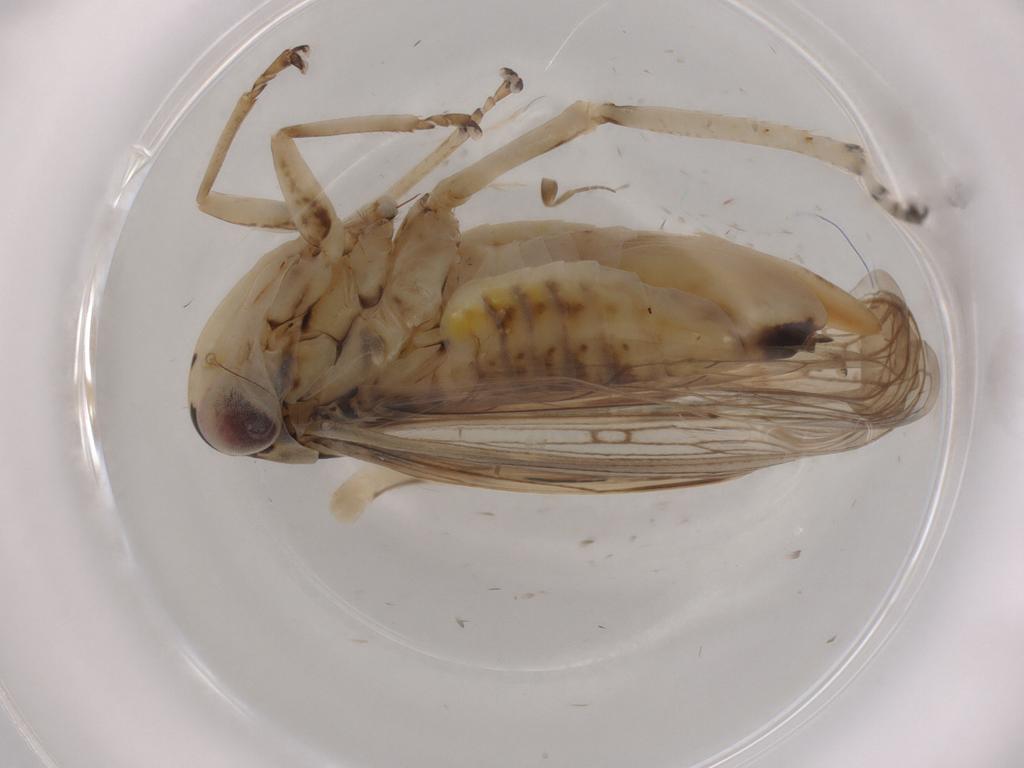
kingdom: Animalia
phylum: Arthropoda
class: Insecta
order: Hemiptera
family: Cicadellidae
